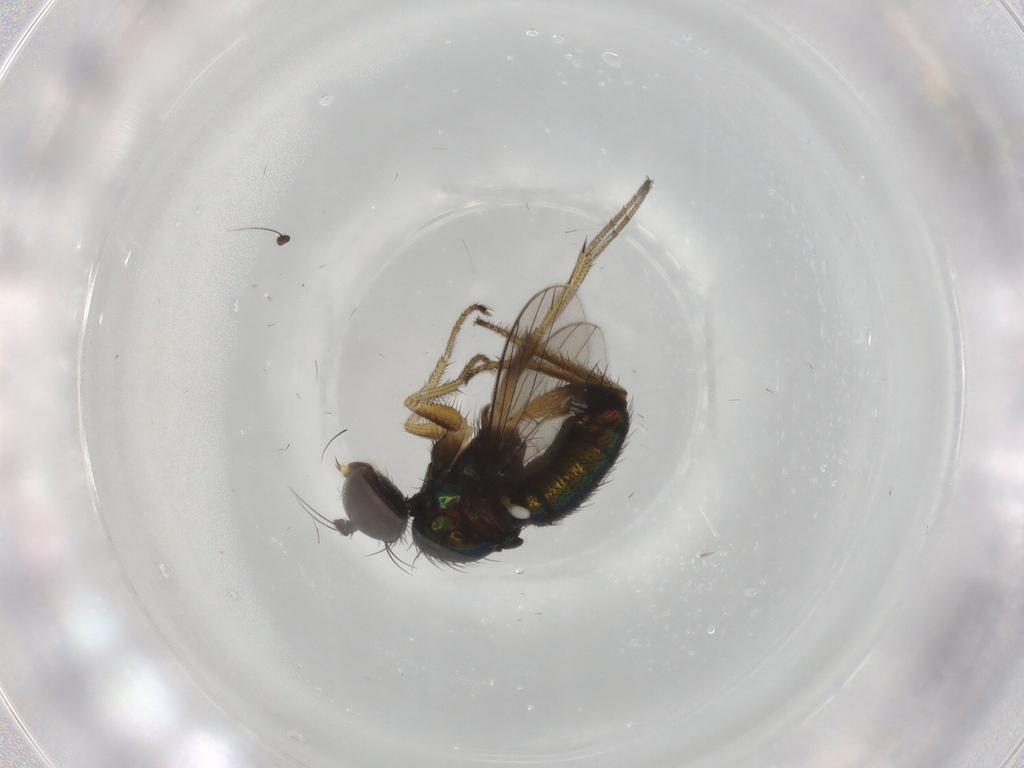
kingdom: Animalia
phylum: Arthropoda
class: Insecta
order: Diptera
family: Dolichopodidae
